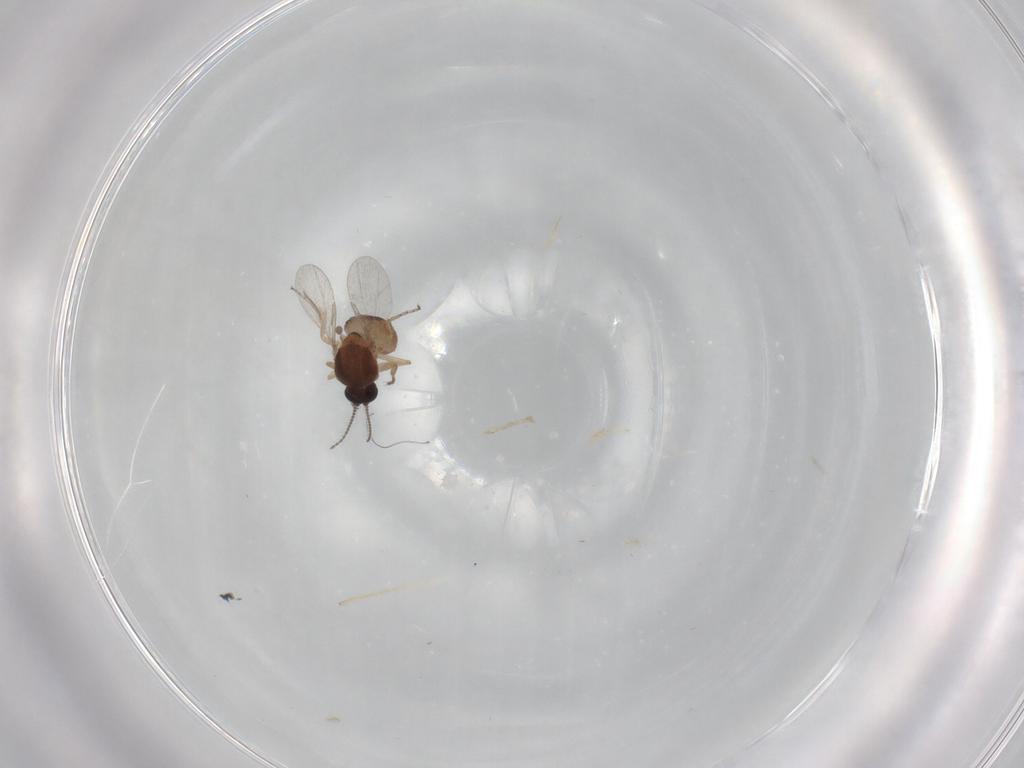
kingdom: Animalia
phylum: Arthropoda
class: Insecta
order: Diptera
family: Ceratopogonidae
